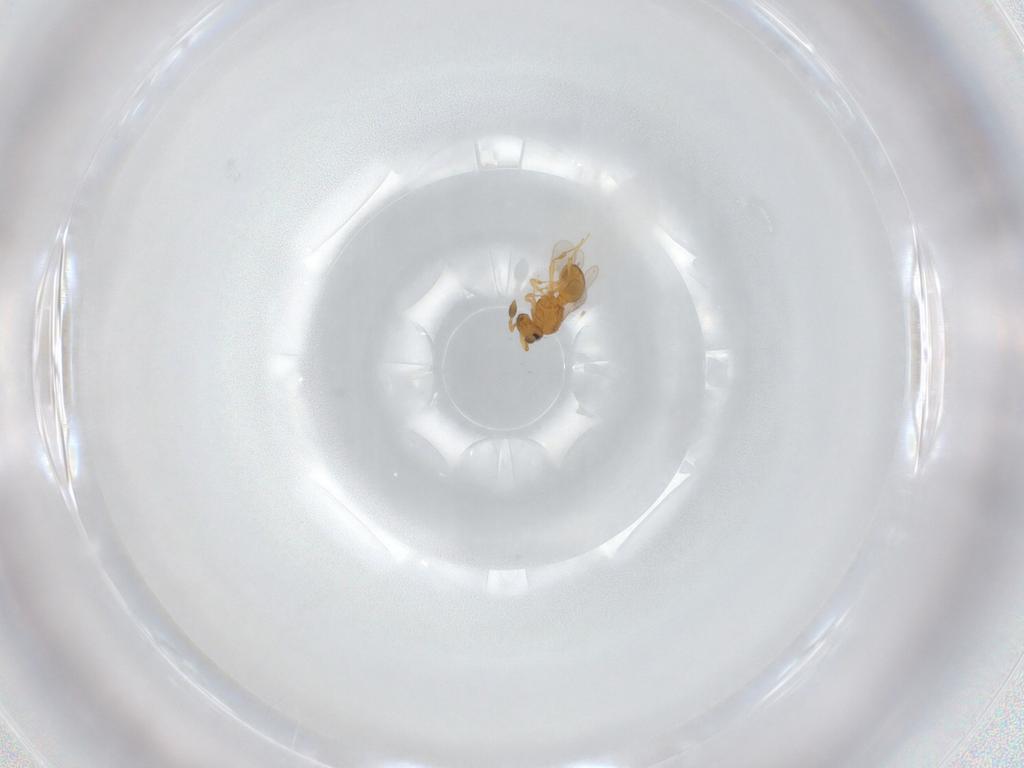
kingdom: Animalia
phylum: Arthropoda
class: Insecta
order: Hymenoptera
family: Scelionidae
